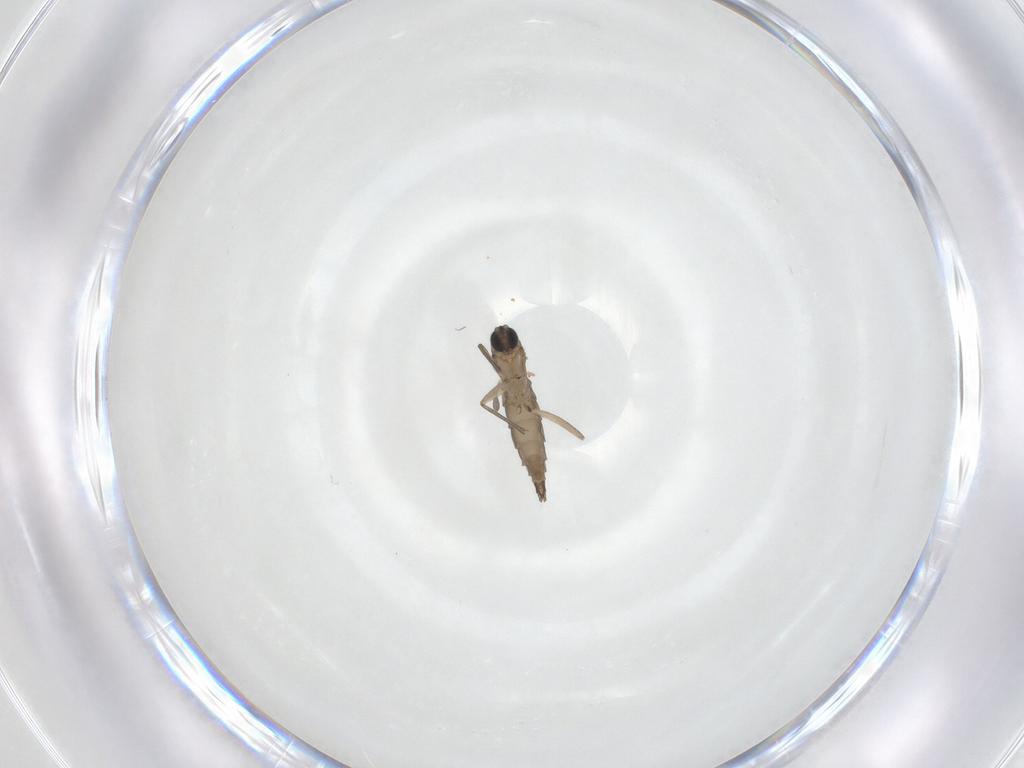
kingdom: Animalia
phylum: Arthropoda
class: Insecta
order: Diptera
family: Sciaridae
